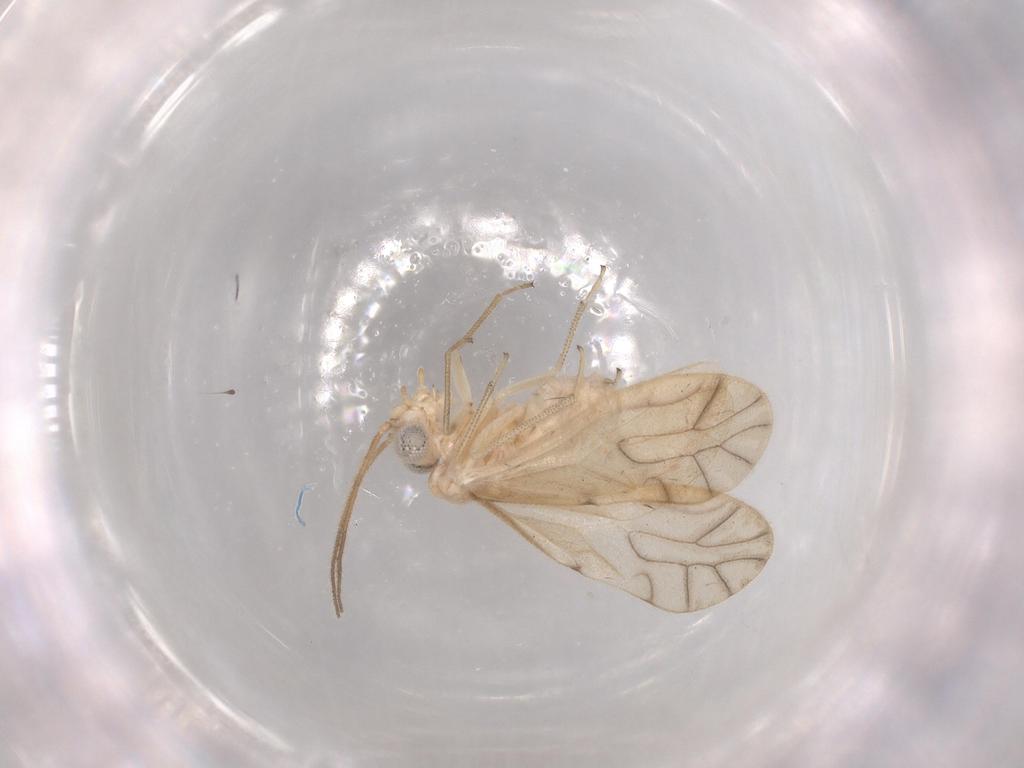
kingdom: Animalia
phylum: Arthropoda
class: Insecta
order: Psocodea
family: Caeciliusidae
